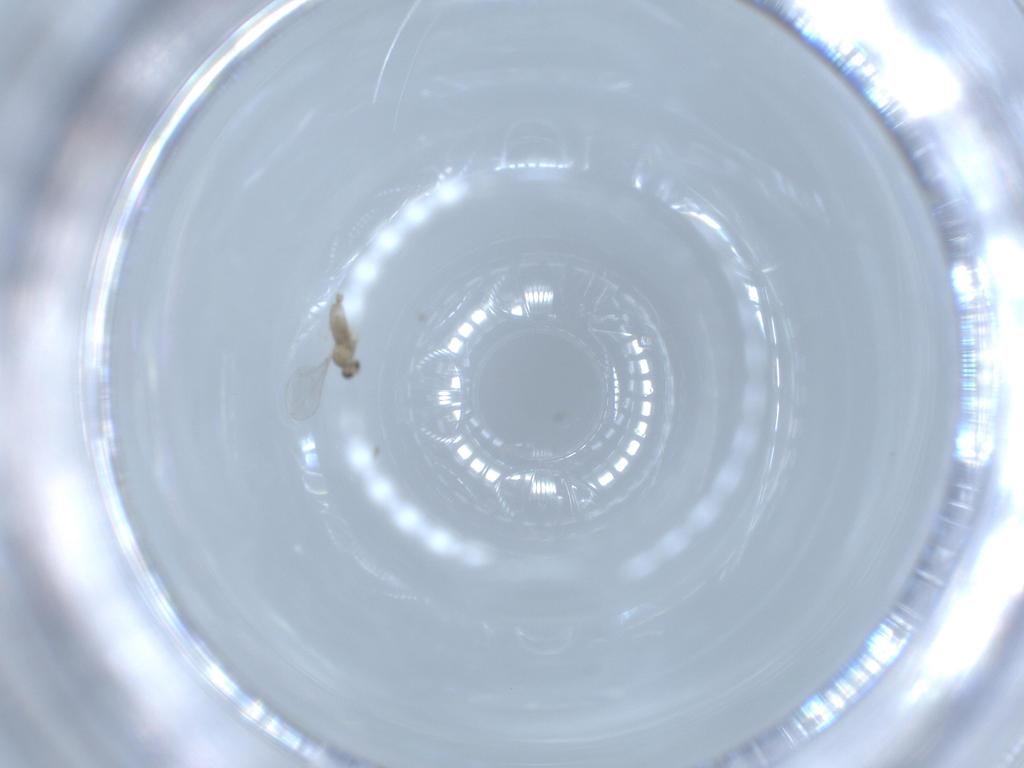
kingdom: Animalia
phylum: Arthropoda
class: Insecta
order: Diptera
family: Cecidomyiidae
